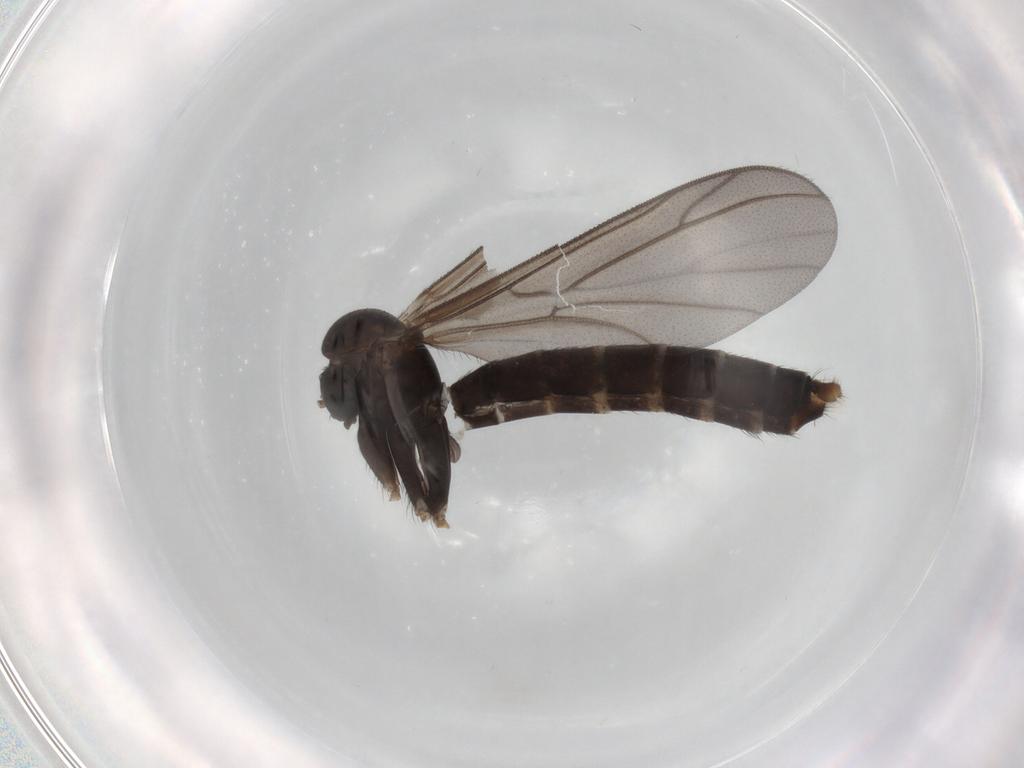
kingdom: Animalia
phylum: Arthropoda
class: Insecta
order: Diptera
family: Ditomyiidae
